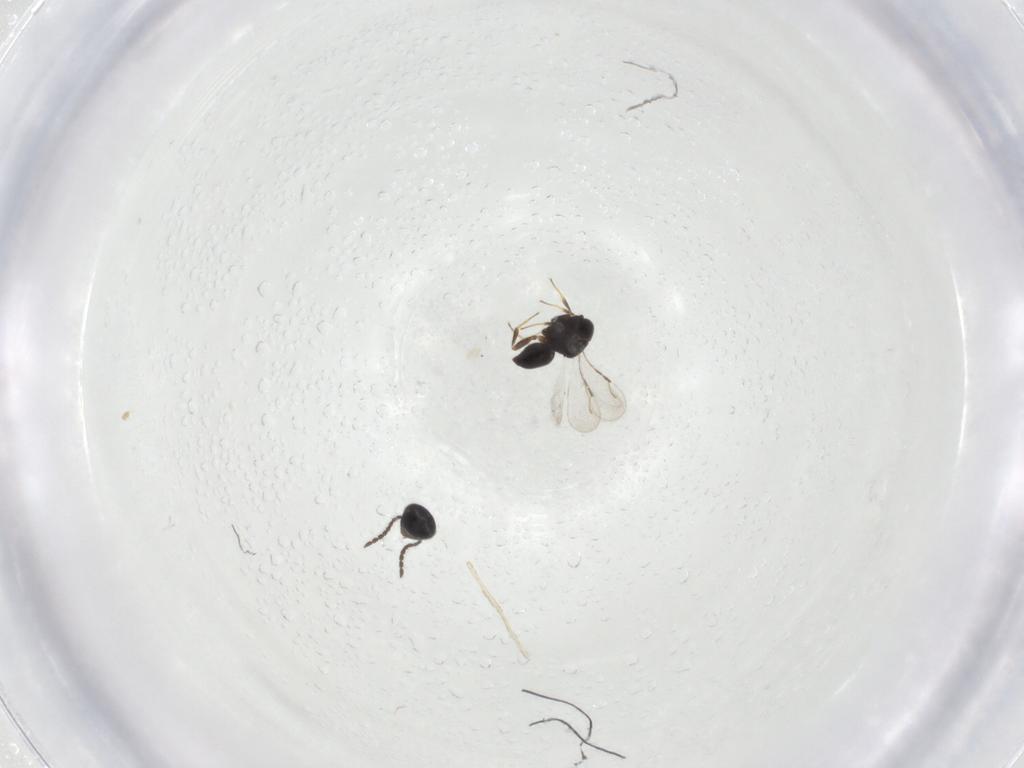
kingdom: Animalia
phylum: Arthropoda
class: Insecta
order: Hymenoptera
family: Ceraphronidae
